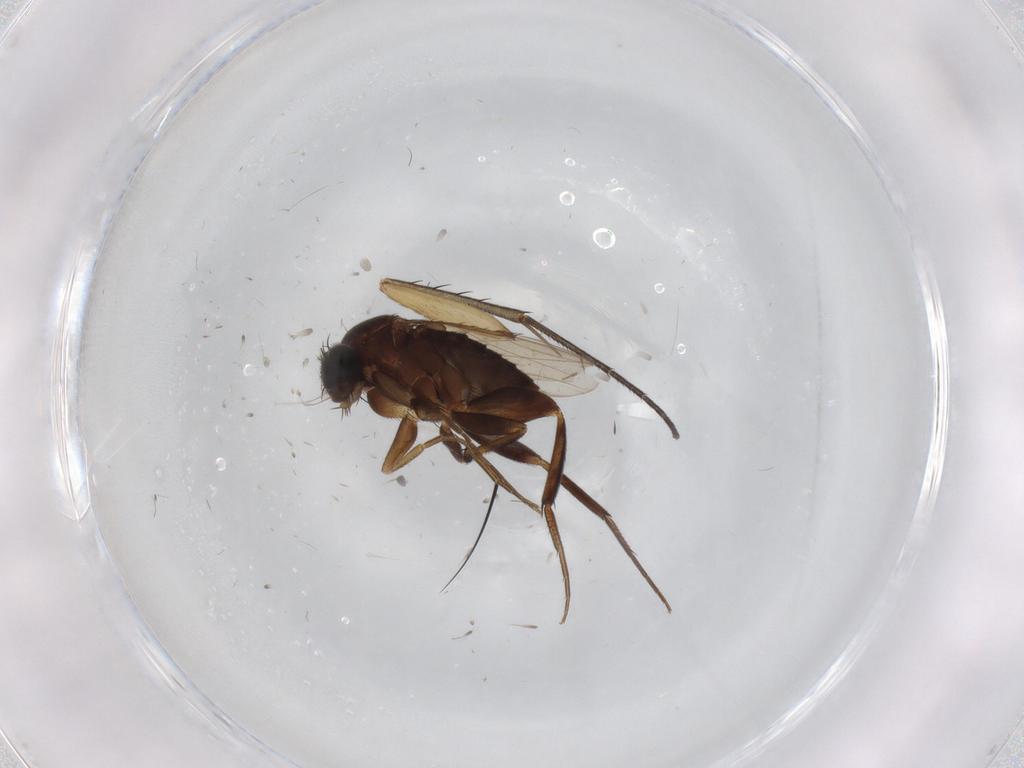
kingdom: Animalia
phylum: Arthropoda
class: Insecta
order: Diptera
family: Phoridae
